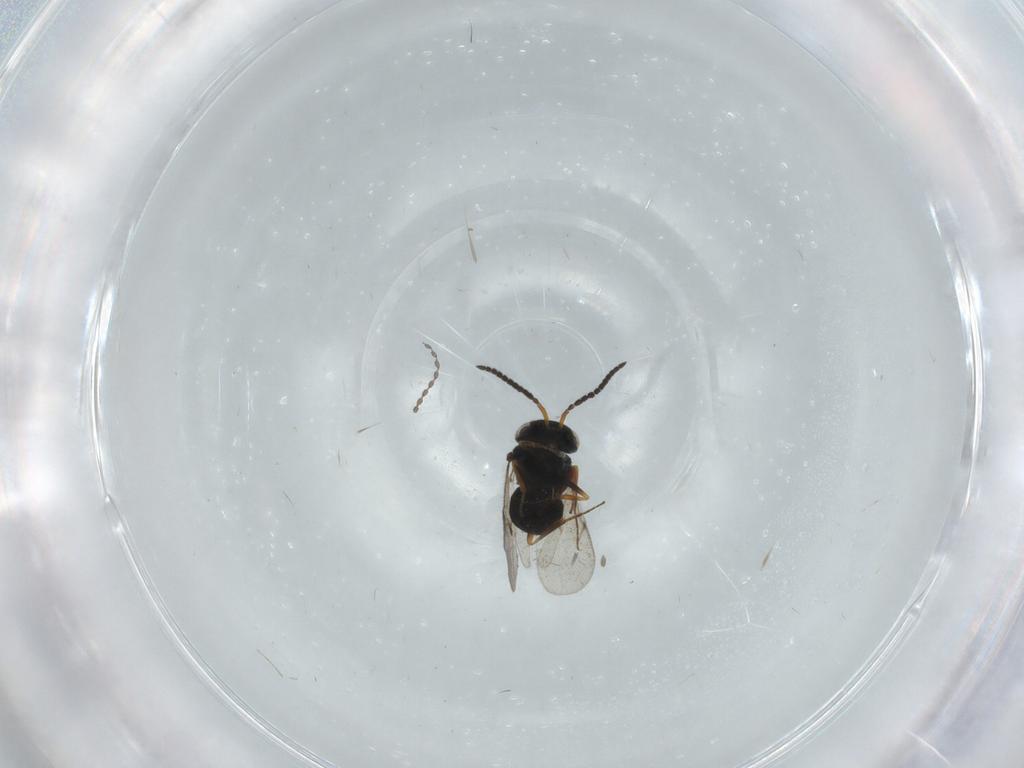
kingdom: Animalia
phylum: Arthropoda
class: Insecta
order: Hymenoptera
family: Scelionidae
